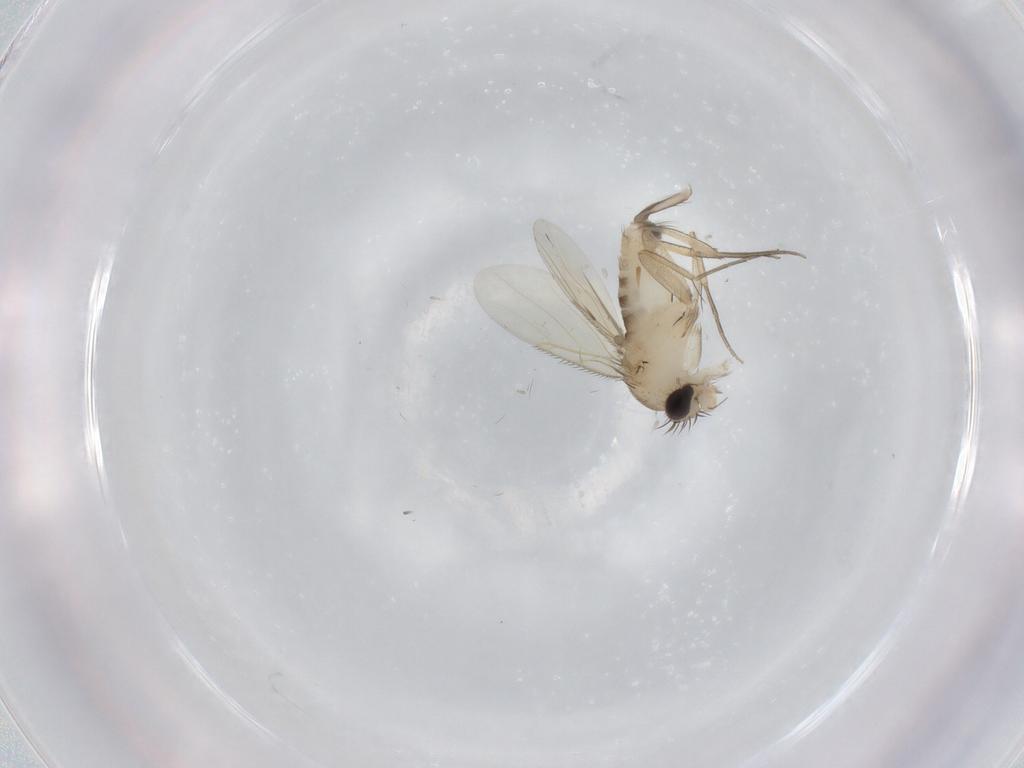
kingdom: Animalia
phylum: Arthropoda
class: Insecta
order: Diptera
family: Phoridae
